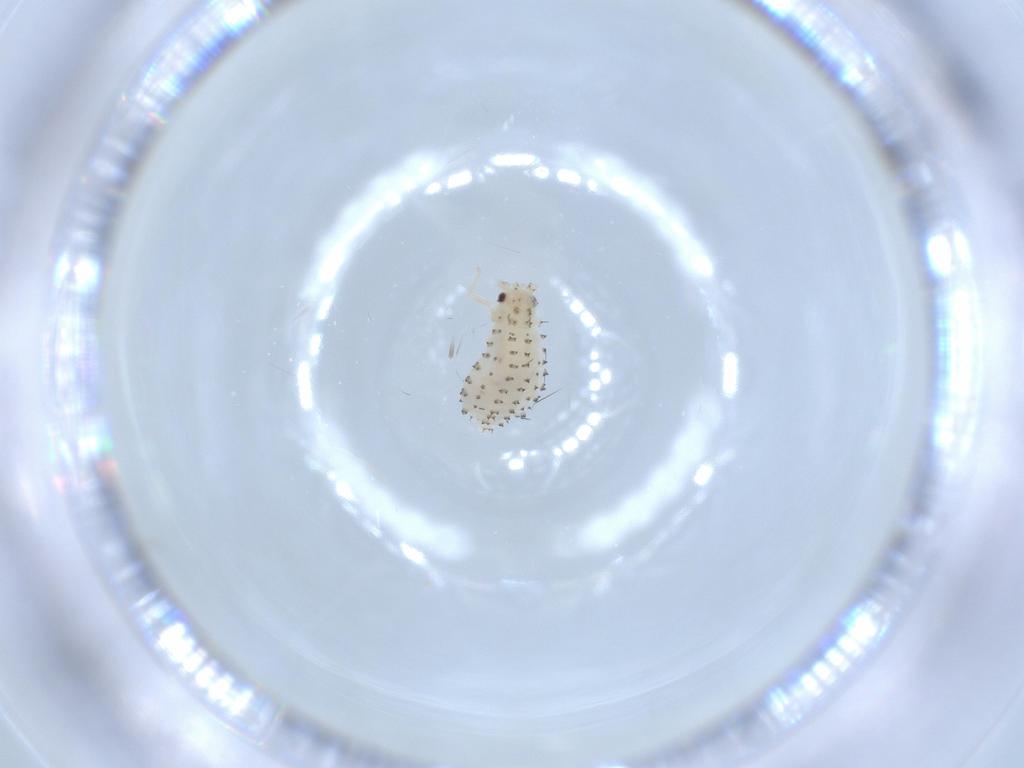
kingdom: Animalia
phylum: Arthropoda
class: Insecta
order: Hemiptera
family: Aphididae
